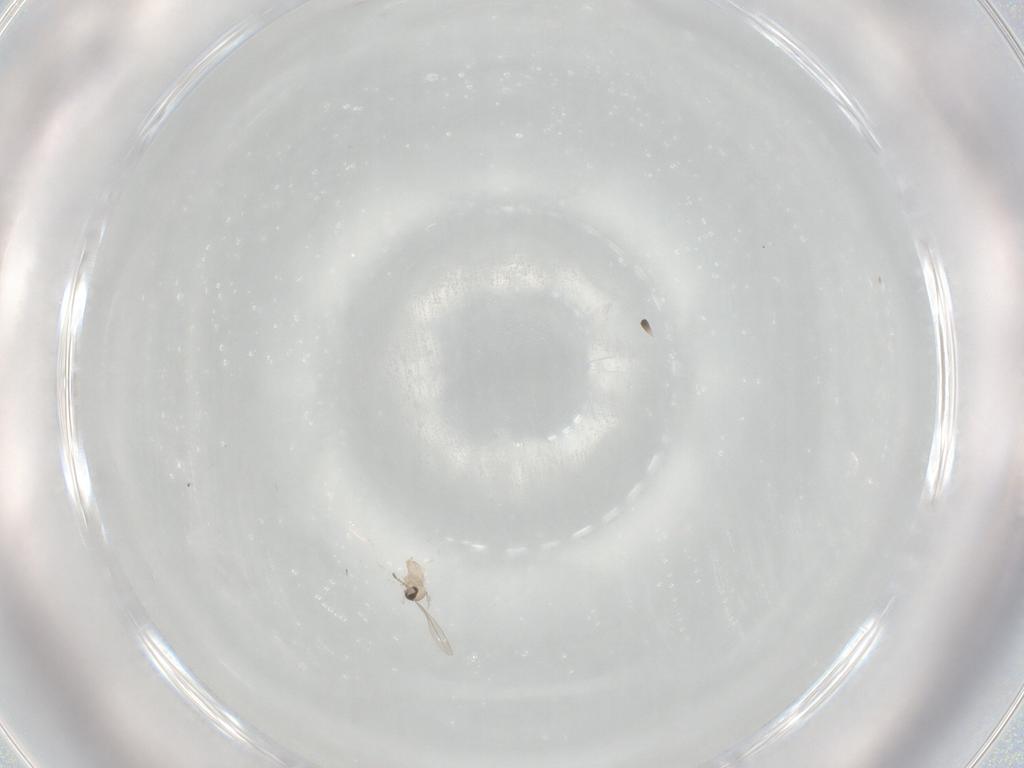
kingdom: Animalia
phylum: Arthropoda
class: Insecta
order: Diptera
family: Cecidomyiidae
